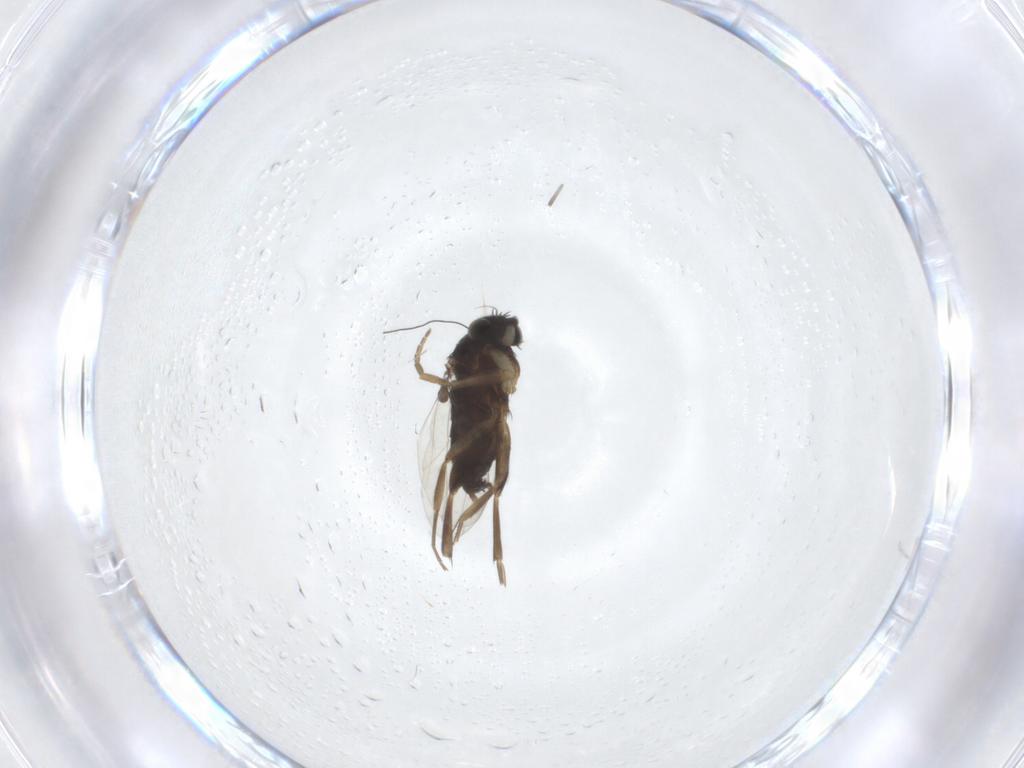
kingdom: Animalia
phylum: Arthropoda
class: Insecta
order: Diptera
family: Phoridae
